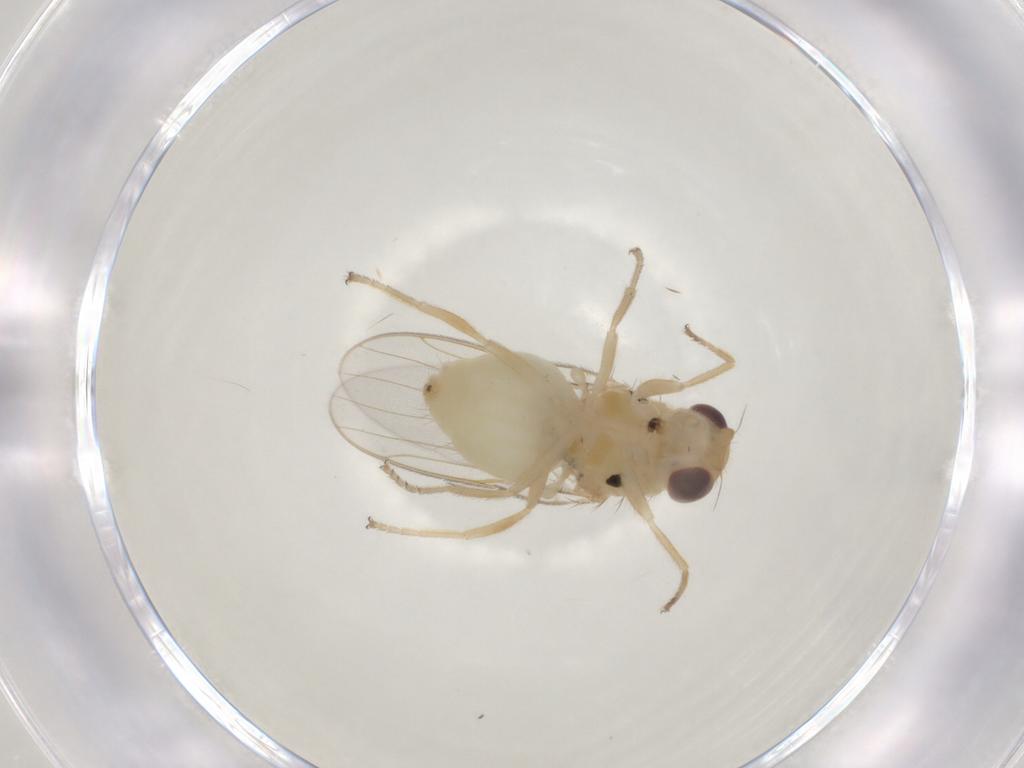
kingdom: Animalia
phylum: Arthropoda
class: Insecta
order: Diptera
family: Chloropidae
